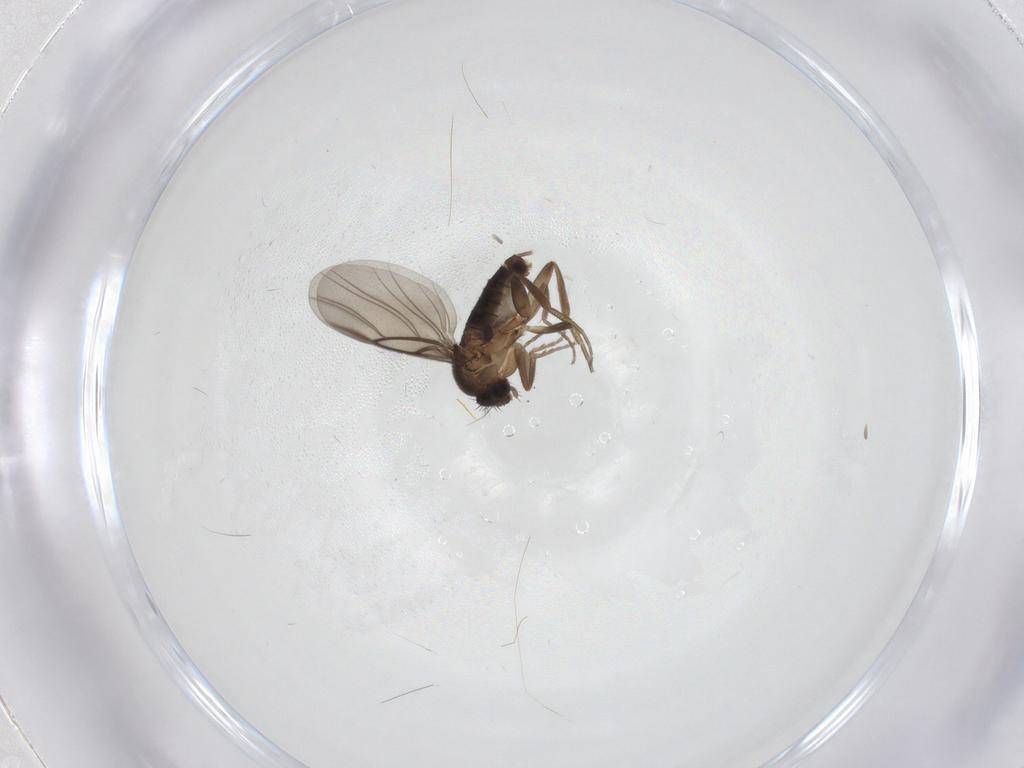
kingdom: Animalia
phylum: Arthropoda
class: Insecta
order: Diptera
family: Phoridae
